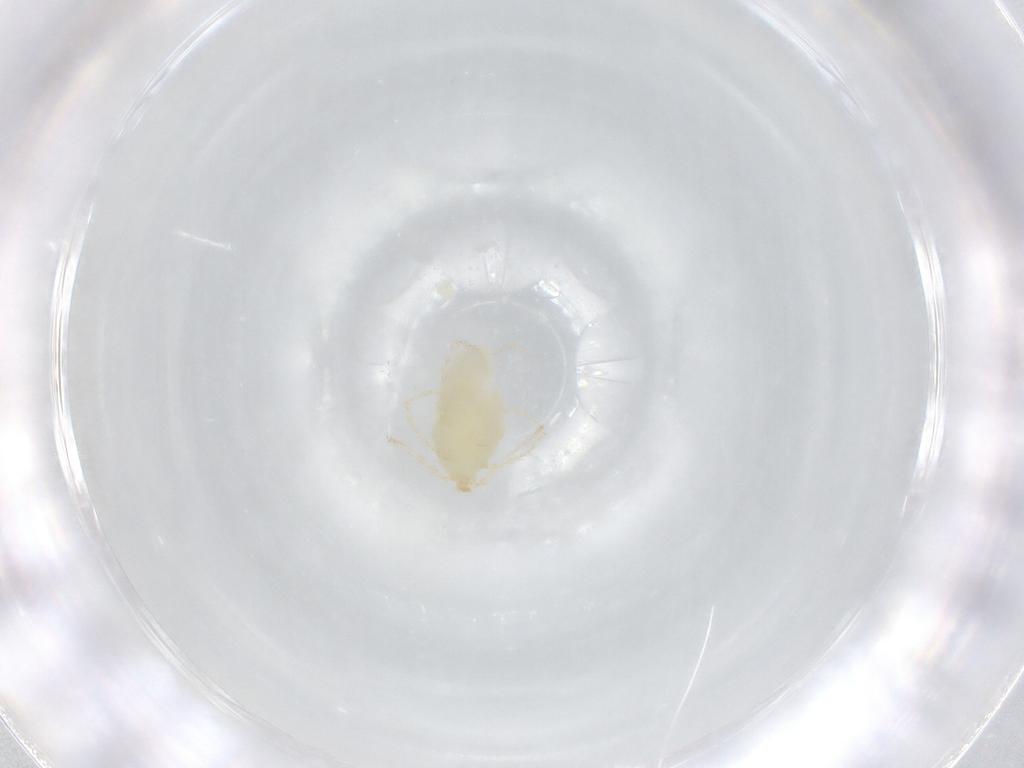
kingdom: Animalia
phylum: Arthropoda
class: Arachnida
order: Trombidiformes
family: Erythraeidae
